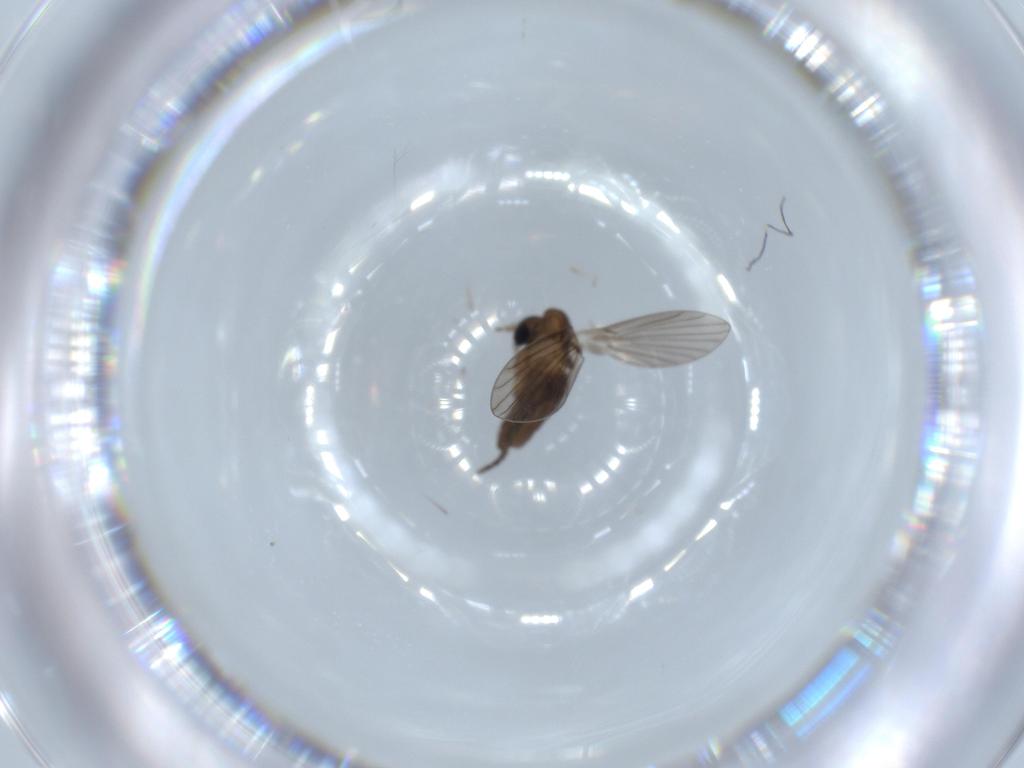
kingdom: Animalia
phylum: Arthropoda
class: Insecta
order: Diptera
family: Psychodidae
